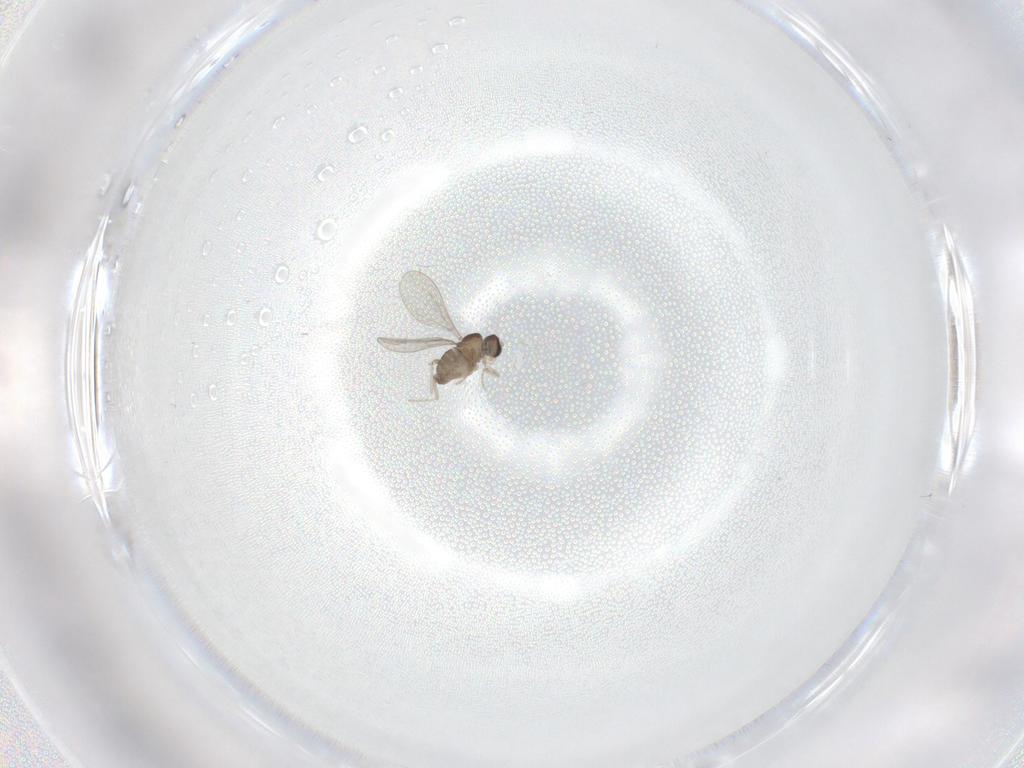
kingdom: Animalia
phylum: Arthropoda
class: Insecta
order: Diptera
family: Cecidomyiidae
